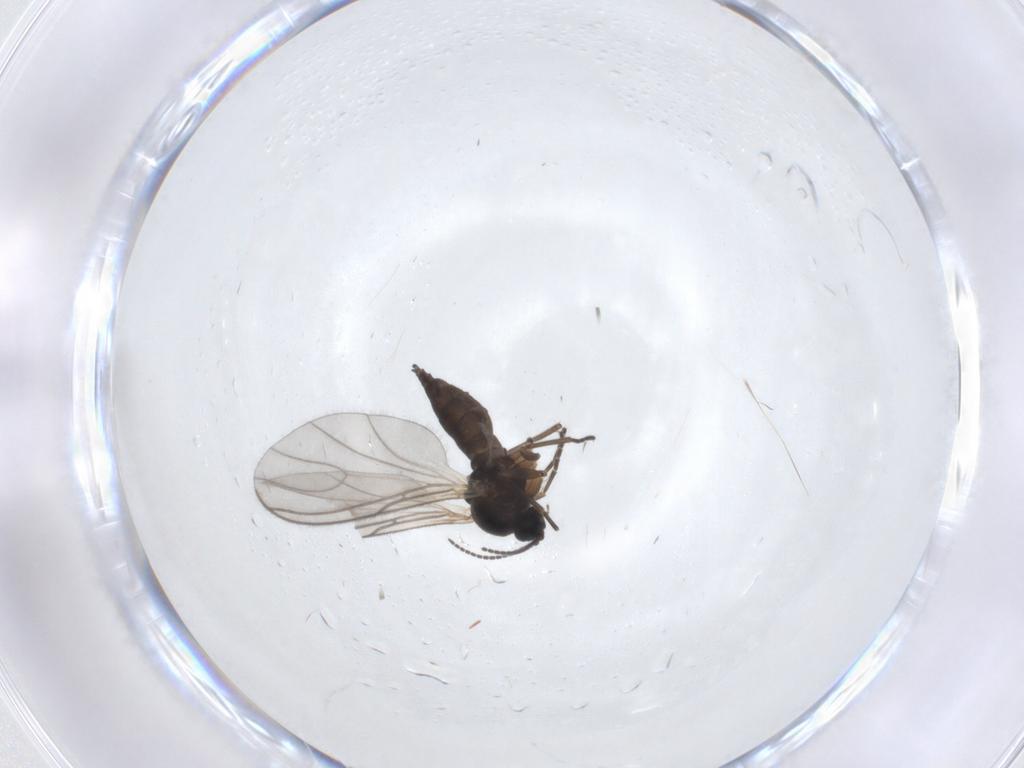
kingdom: Animalia
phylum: Arthropoda
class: Insecta
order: Diptera
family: Sciaridae
